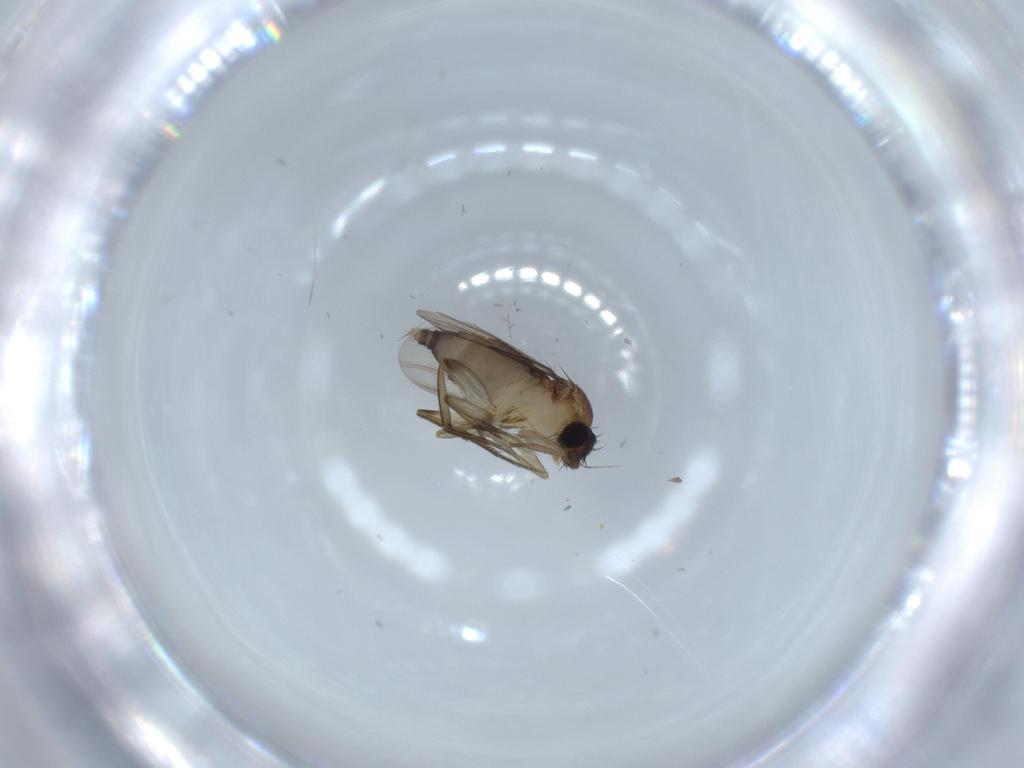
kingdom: Animalia
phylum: Arthropoda
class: Insecta
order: Diptera
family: Phoridae
